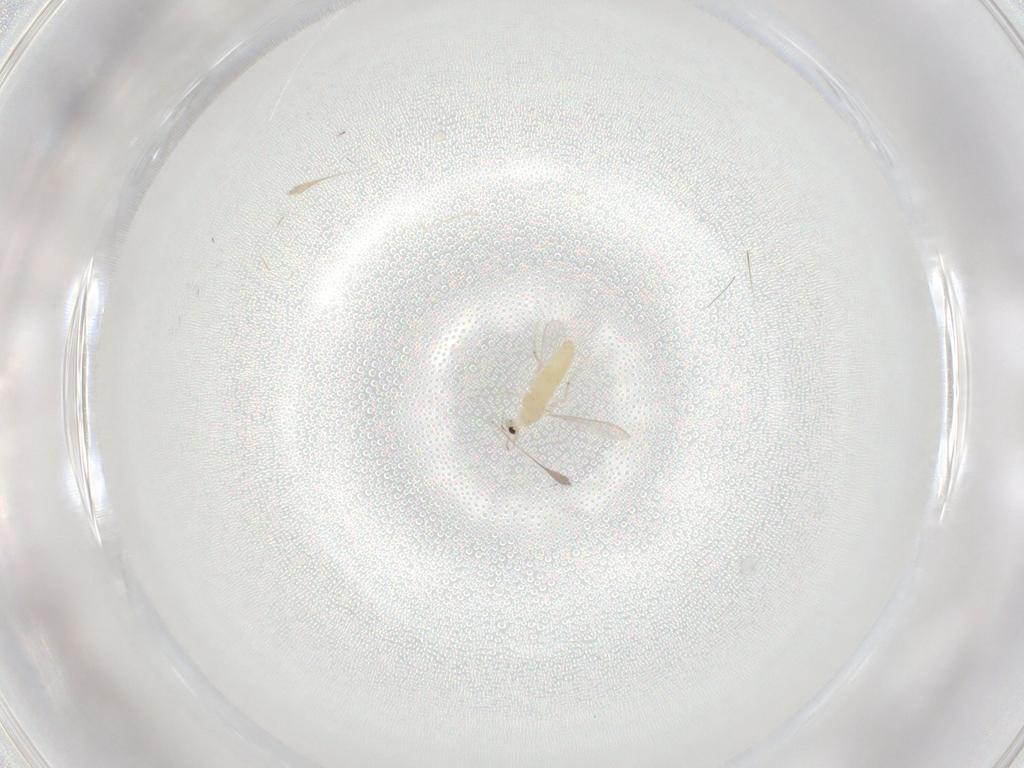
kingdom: Animalia
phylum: Arthropoda
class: Insecta
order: Diptera
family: Chironomidae
